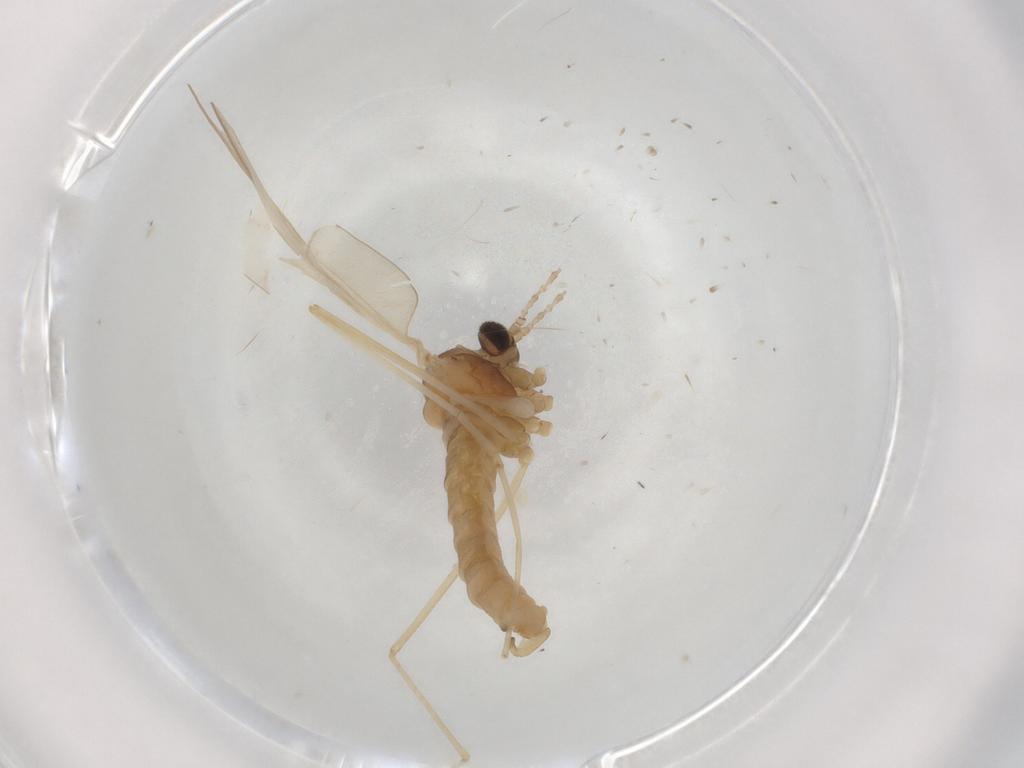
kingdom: Animalia
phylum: Arthropoda
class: Insecta
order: Diptera
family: Cecidomyiidae
